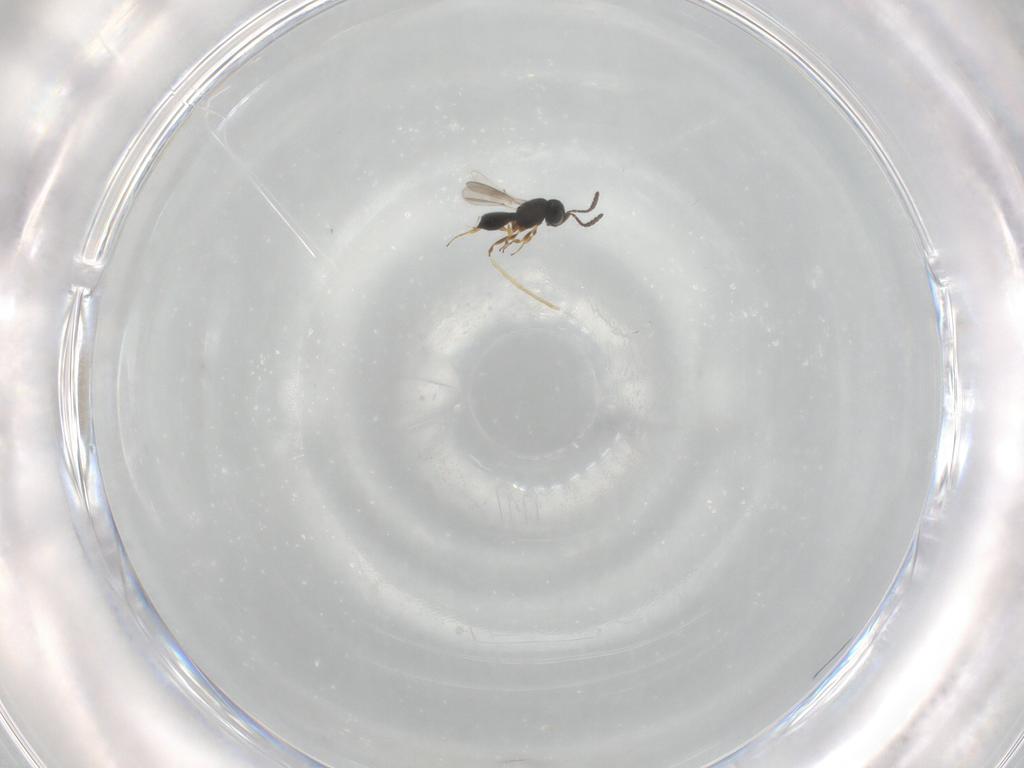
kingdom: Animalia
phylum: Arthropoda
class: Insecta
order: Hymenoptera
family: Scelionidae
